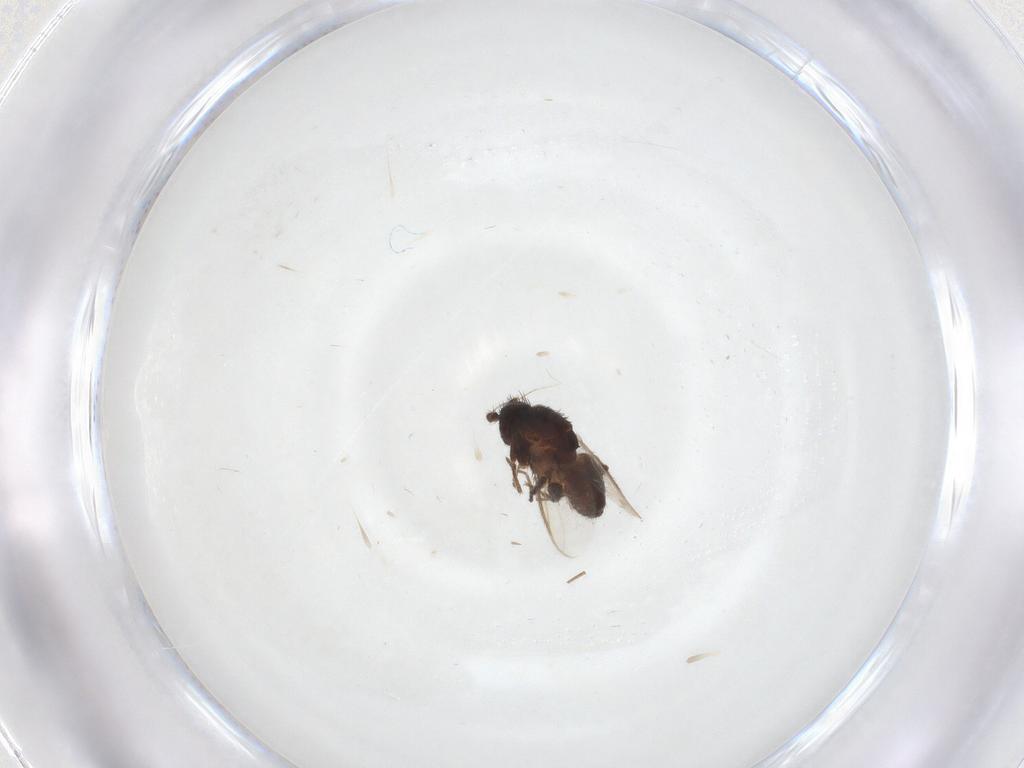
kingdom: Animalia
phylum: Arthropoda
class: Insecta
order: Diptera
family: Sphaeroceridae
